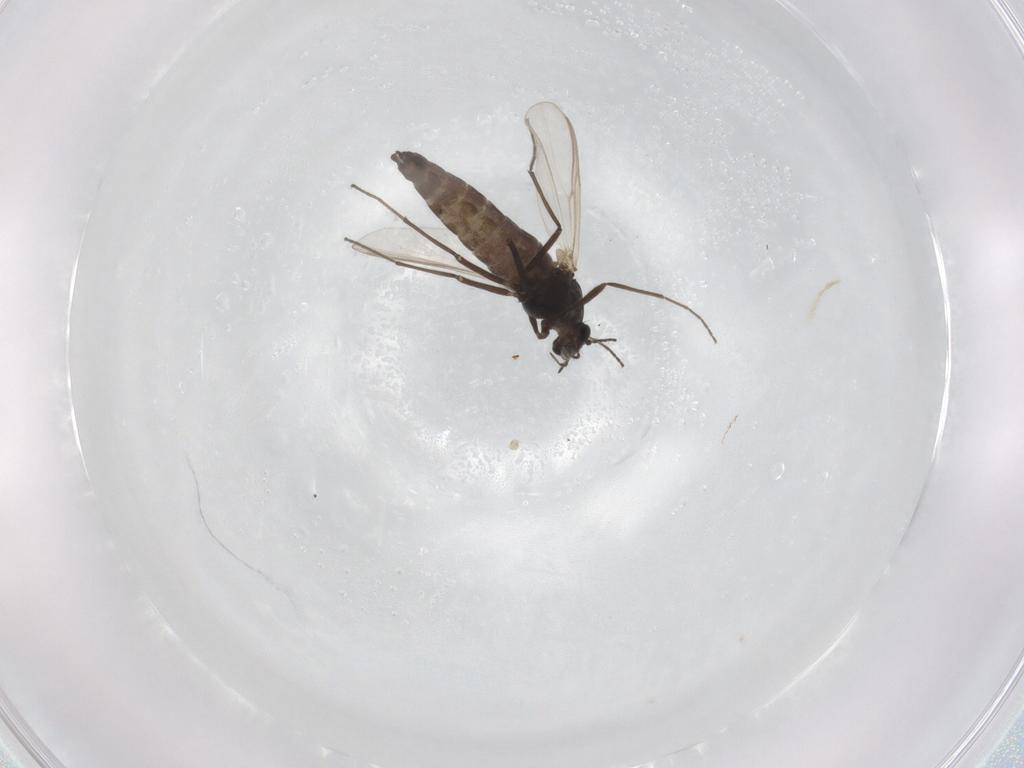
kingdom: Animalia
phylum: Arthropoda
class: Insecta
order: Diptera
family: Chironomidae
